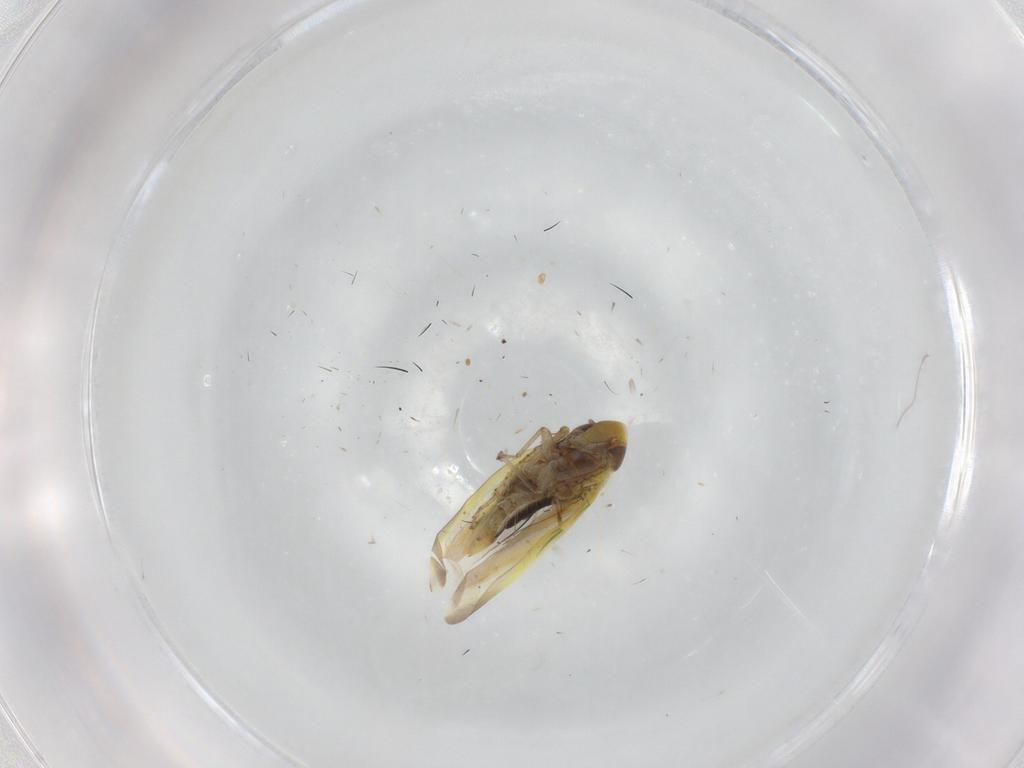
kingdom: Animalia
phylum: Arthropoda
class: Insecta
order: Hemiptera
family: Cicadellidae
